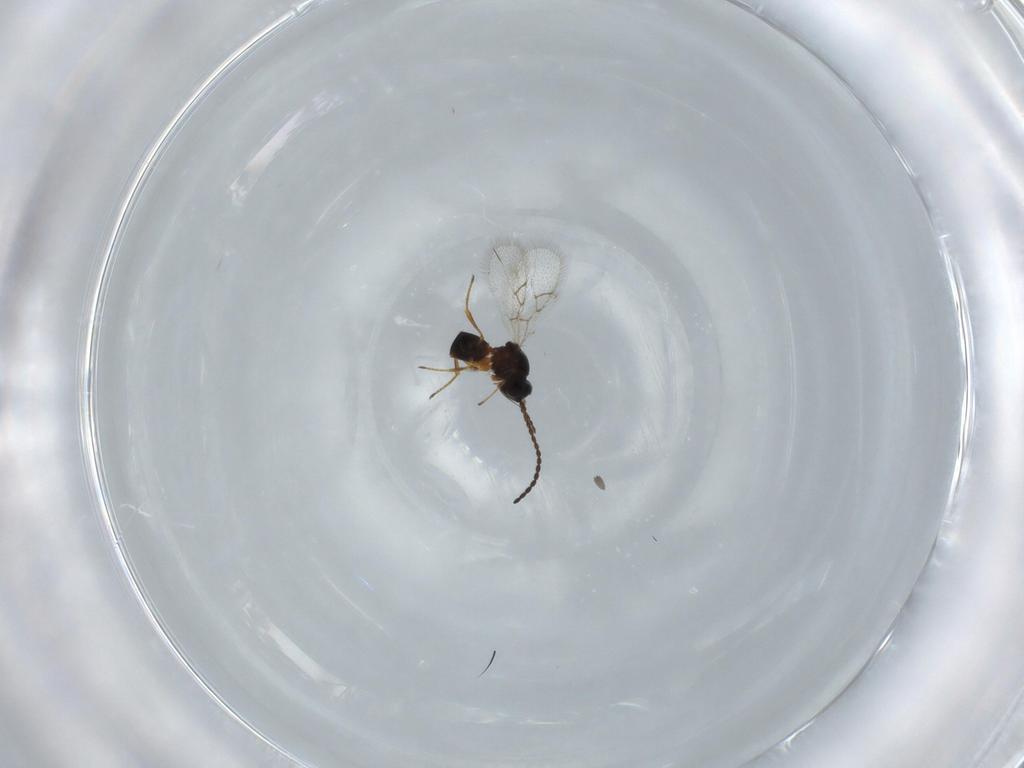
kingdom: Animalia
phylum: Arthropoda
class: Insecta
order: Hymenoptera
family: Figitidae
